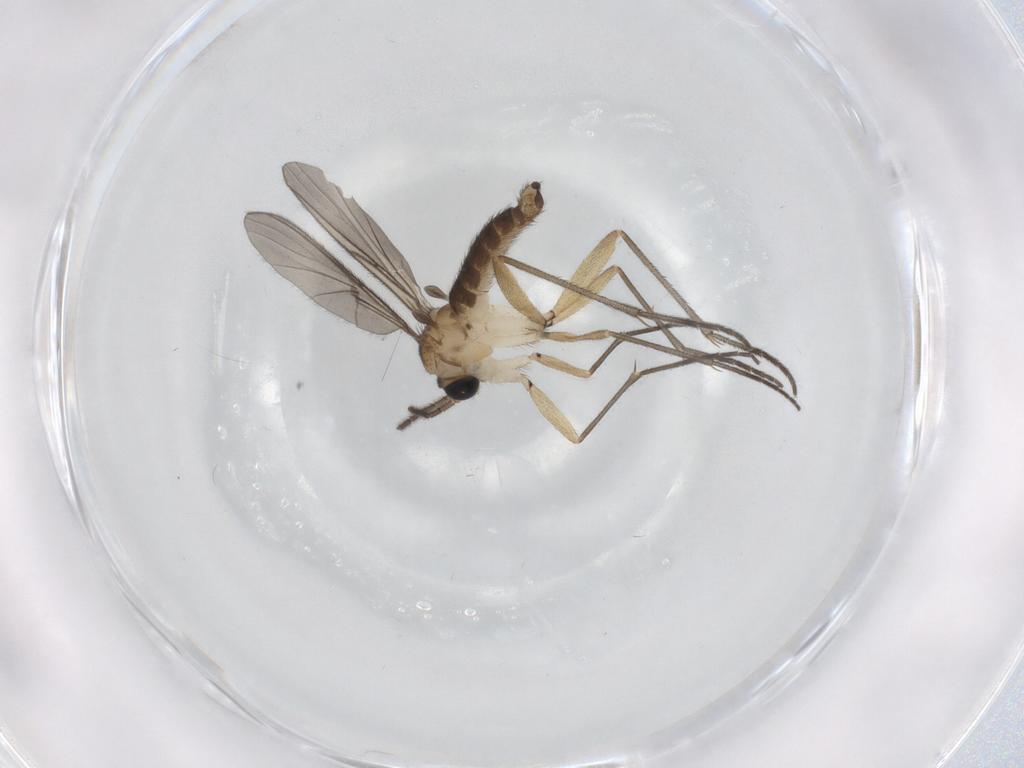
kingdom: Animalia
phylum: Arthropoda
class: Insecta
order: Diptera
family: Sciaridae
